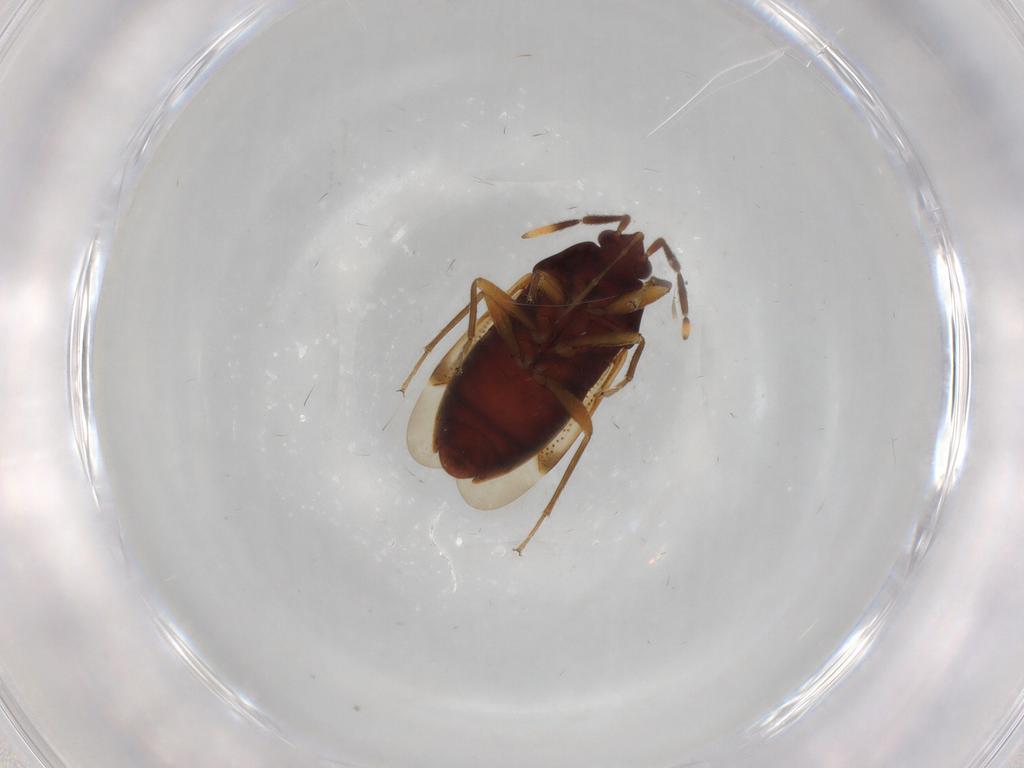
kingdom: Animalia
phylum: Arthropoda
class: Insecta
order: Hemiptera
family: Rhyparochromidae
